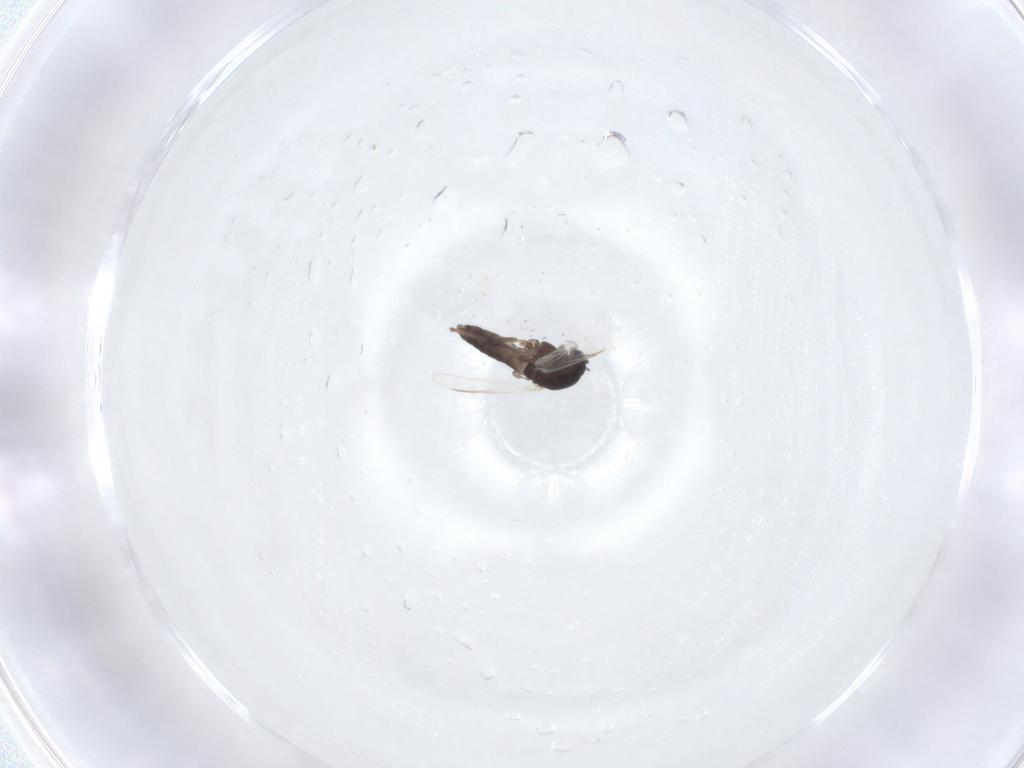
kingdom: Animalia
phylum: Arthropoda
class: Insecta
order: Diptera
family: Chironomidae
